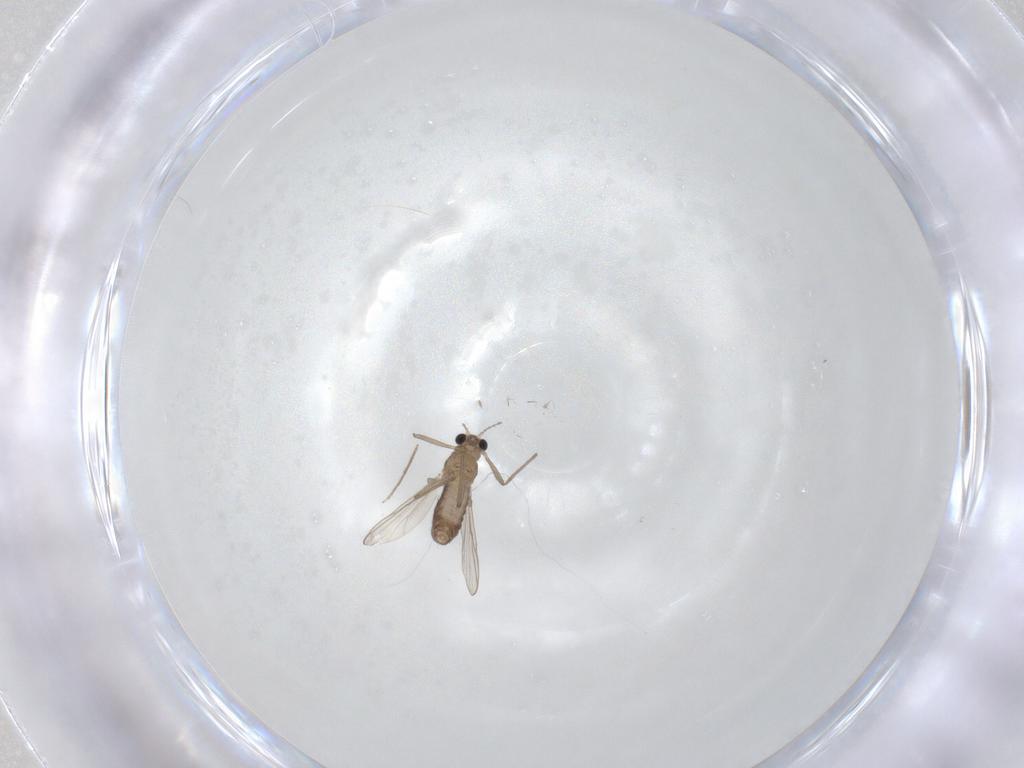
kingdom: Animalia
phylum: Arthropoda
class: Insecta
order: Diptera
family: Chironomidae
